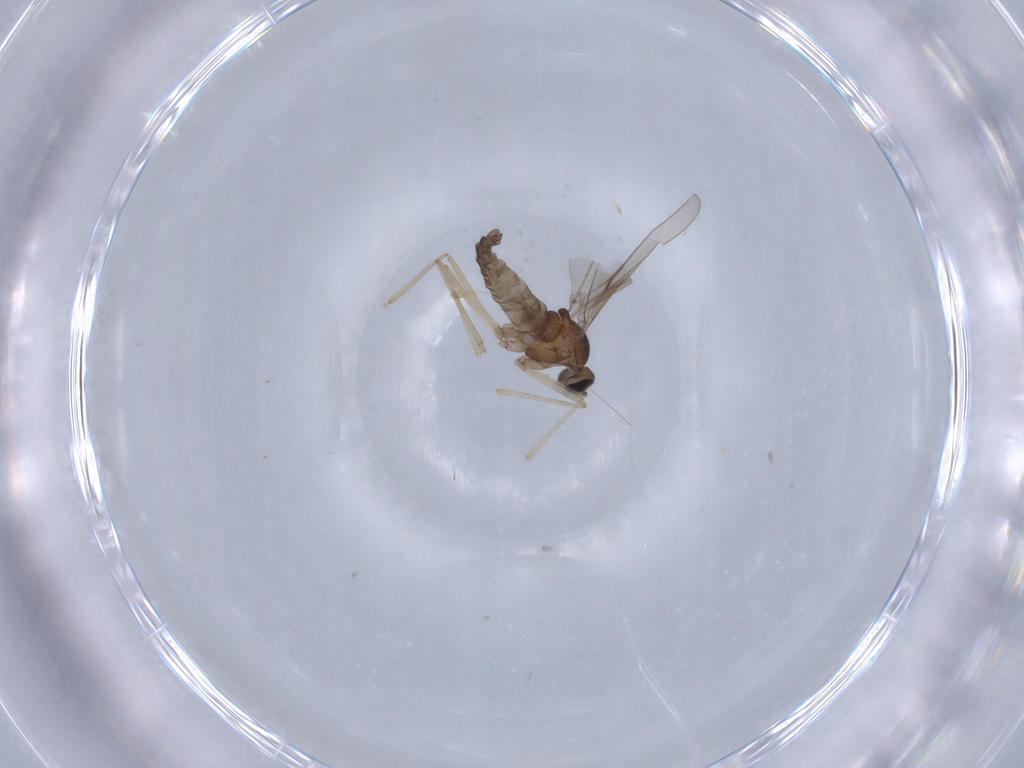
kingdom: Animalia
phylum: Arthropoda
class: Insecta
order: Diptera
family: Cecidomyiidae
